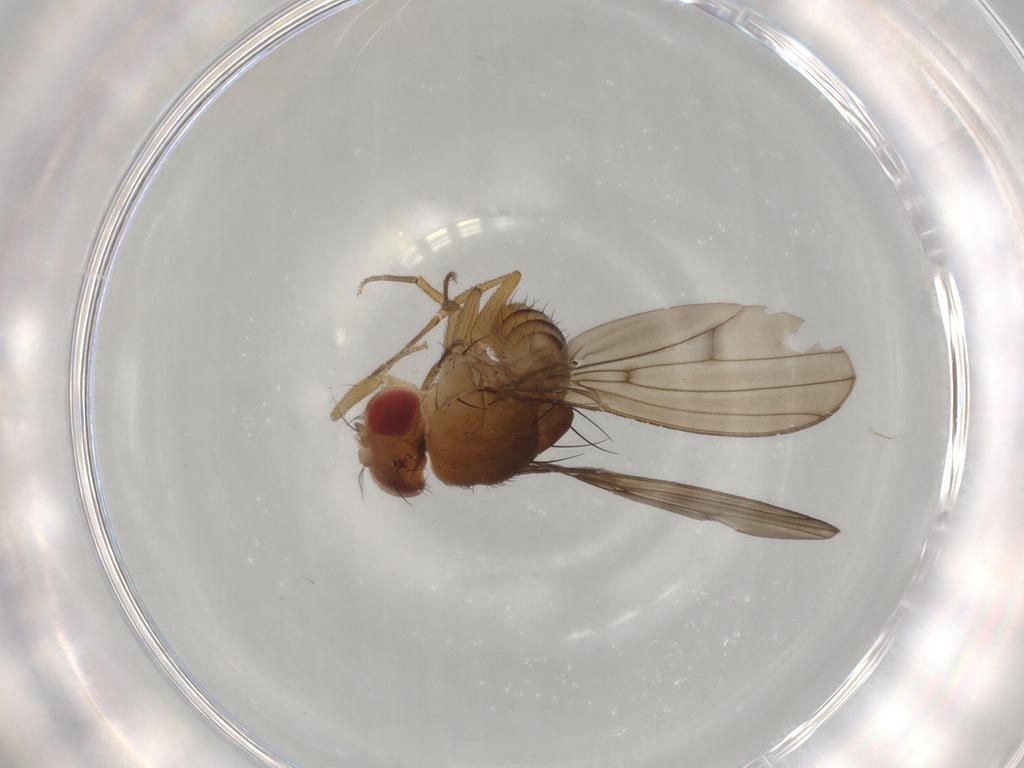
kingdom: Animalia
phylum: Arthropoda
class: Insecta
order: Diptera
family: Drosophilidae
